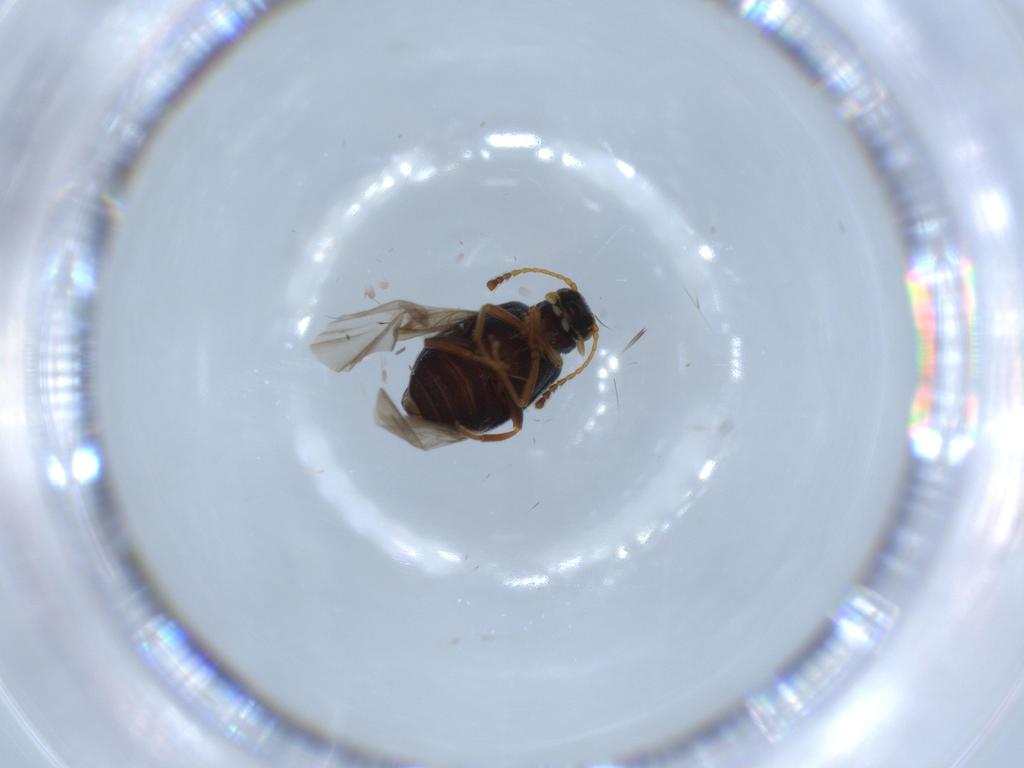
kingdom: Animalia
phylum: Arthropoda
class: Insecta
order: Coleoptera
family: Aderidae
